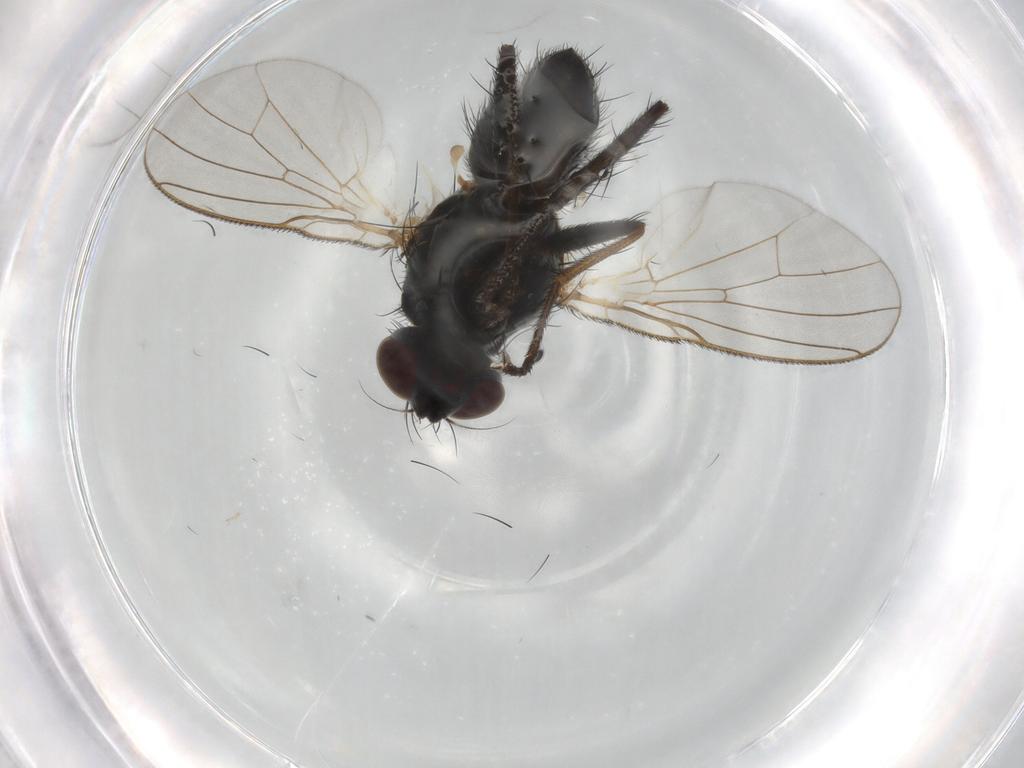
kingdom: Animalia
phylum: Arthropoda
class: Insecta
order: Diptera
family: Muscidae
